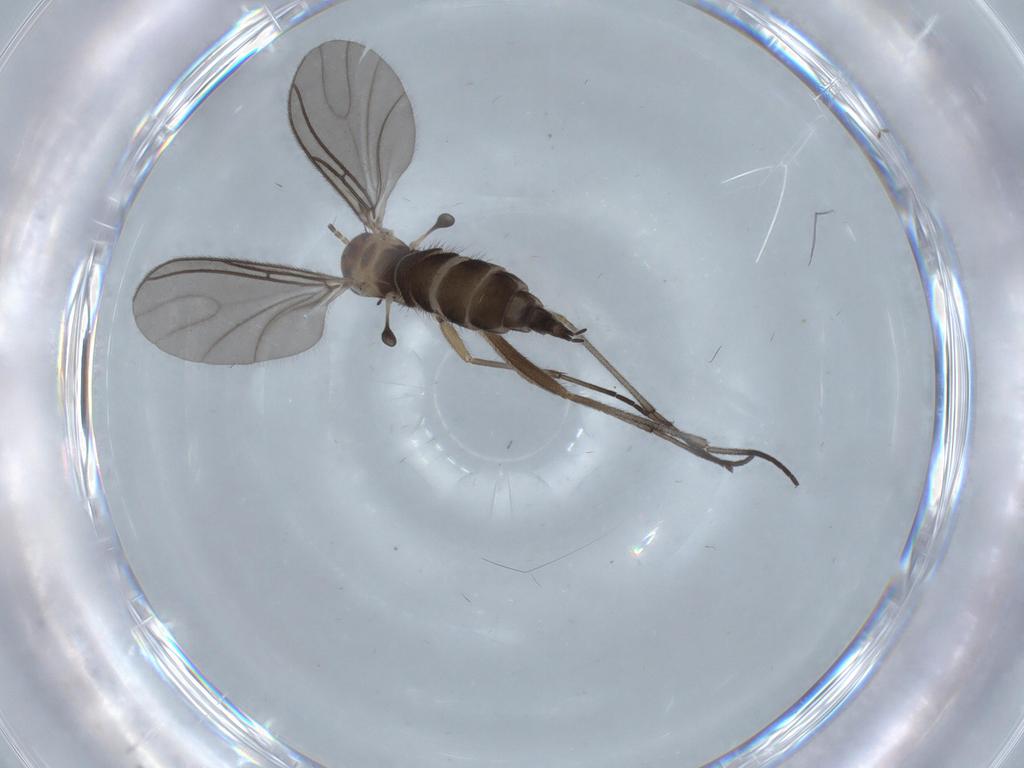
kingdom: Animalia
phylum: Arthropoda
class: Insecta
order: Diptera
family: Sciaridae
